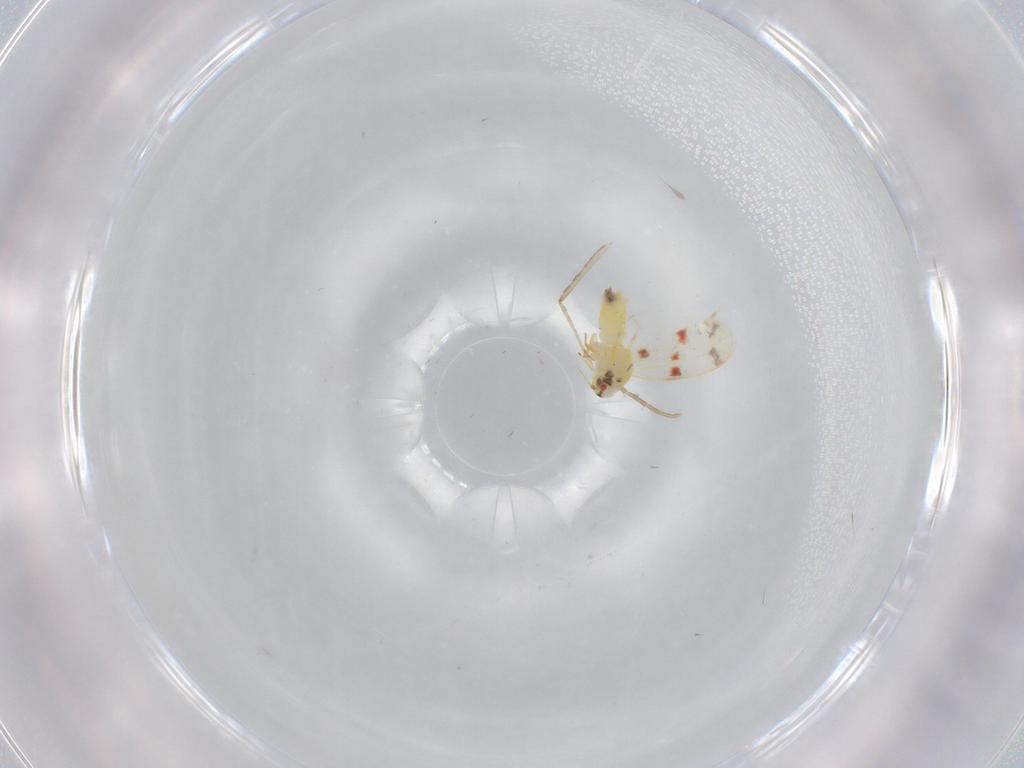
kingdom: Animalia
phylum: Arthropoda
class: Insecta
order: Hemiptera
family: Aleyrodidae
